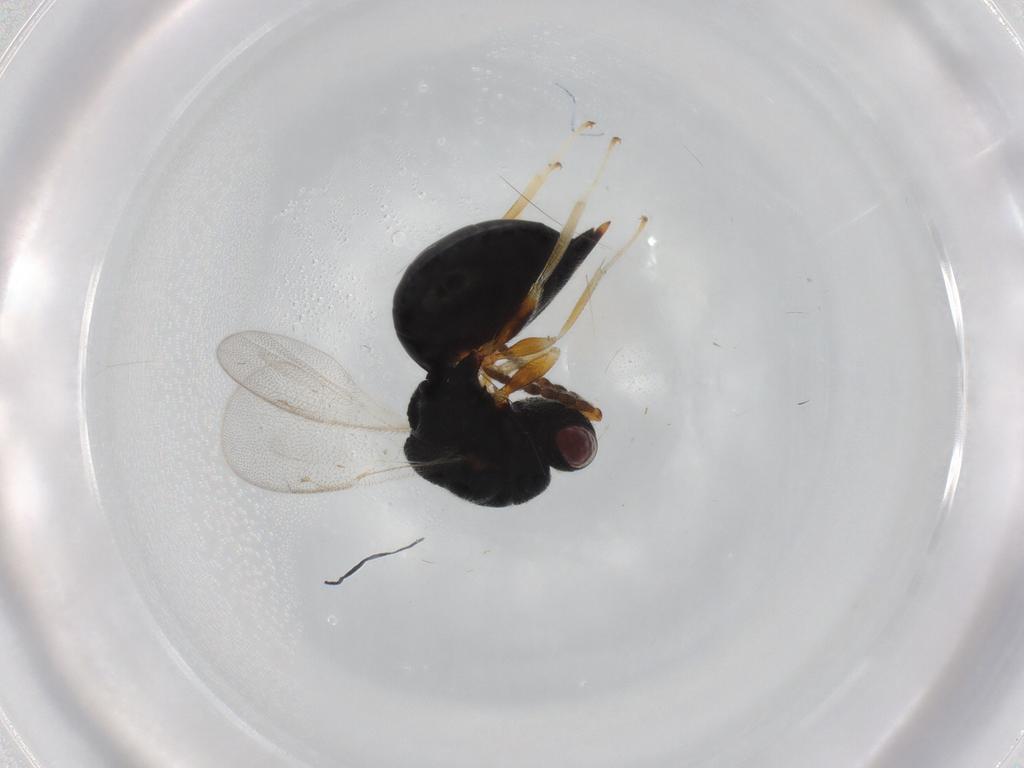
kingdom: Animalia
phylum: Arthropoda
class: Insecta
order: Hymenoptera
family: Eurytomidae
